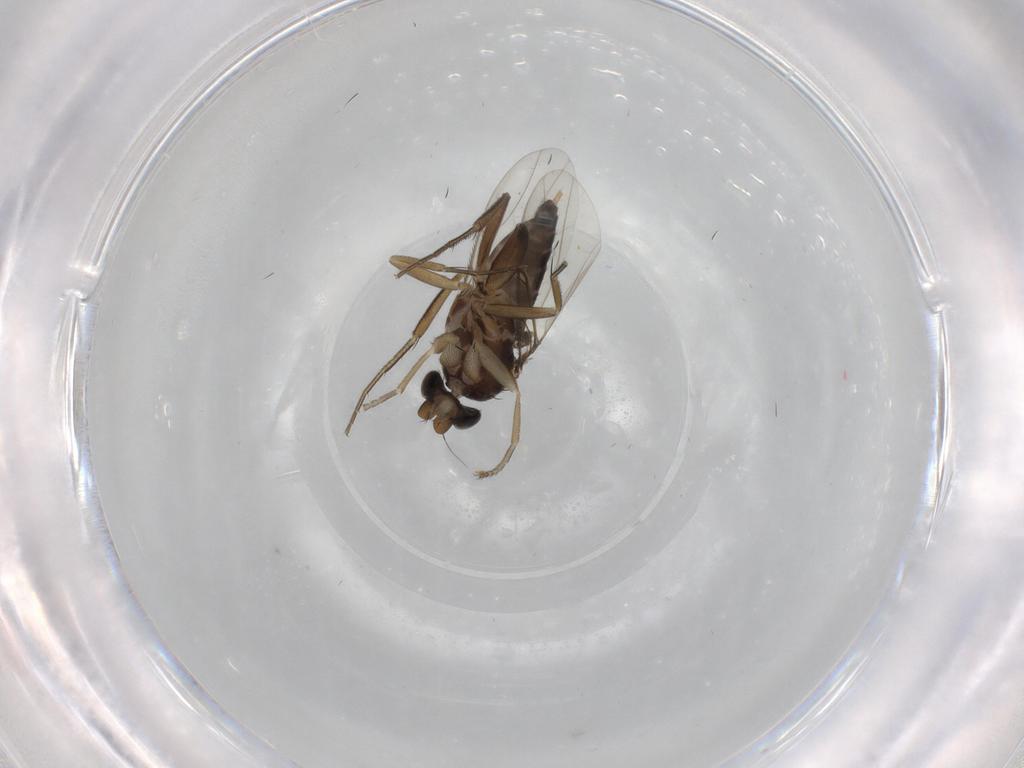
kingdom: Animalia
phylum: Arthropoda
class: Insecta
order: Diptera
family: Phoridae
